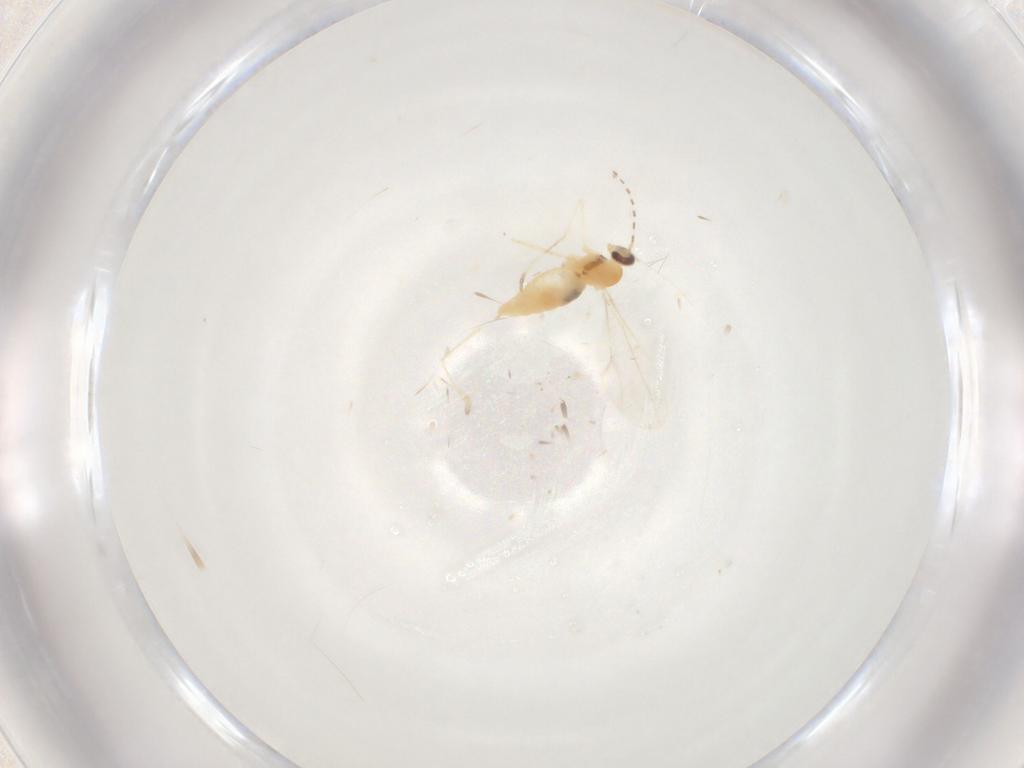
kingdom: Animalia
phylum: Arthropoda
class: Insecta
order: Diptera
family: Cecidomyiidae
